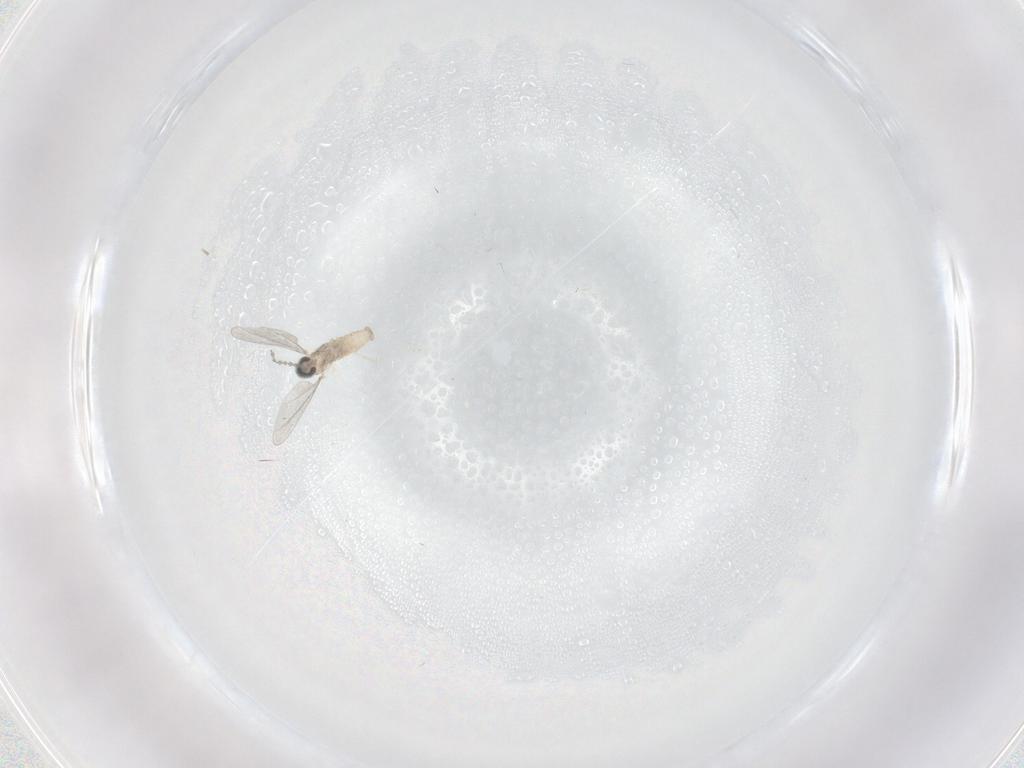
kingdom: Animalia
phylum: Arthropoda
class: Insecta
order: Diptera
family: Cecidomyiidae
